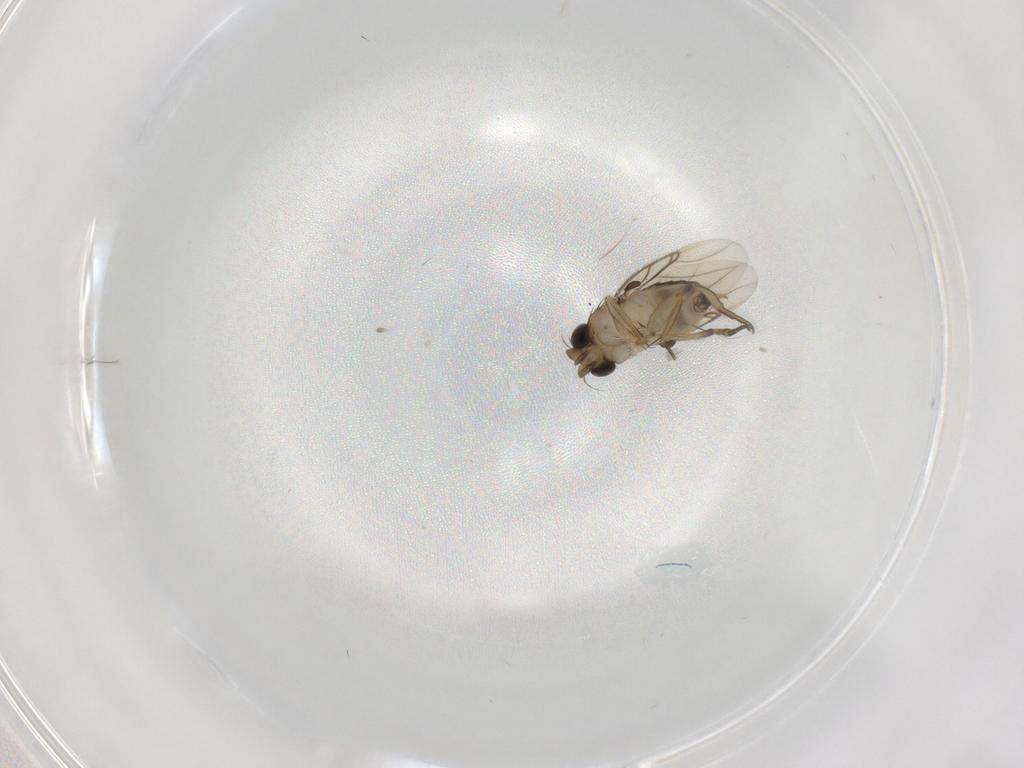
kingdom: Animalia
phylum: Arthropoda
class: Insecta
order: Diptera
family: Phoridae
